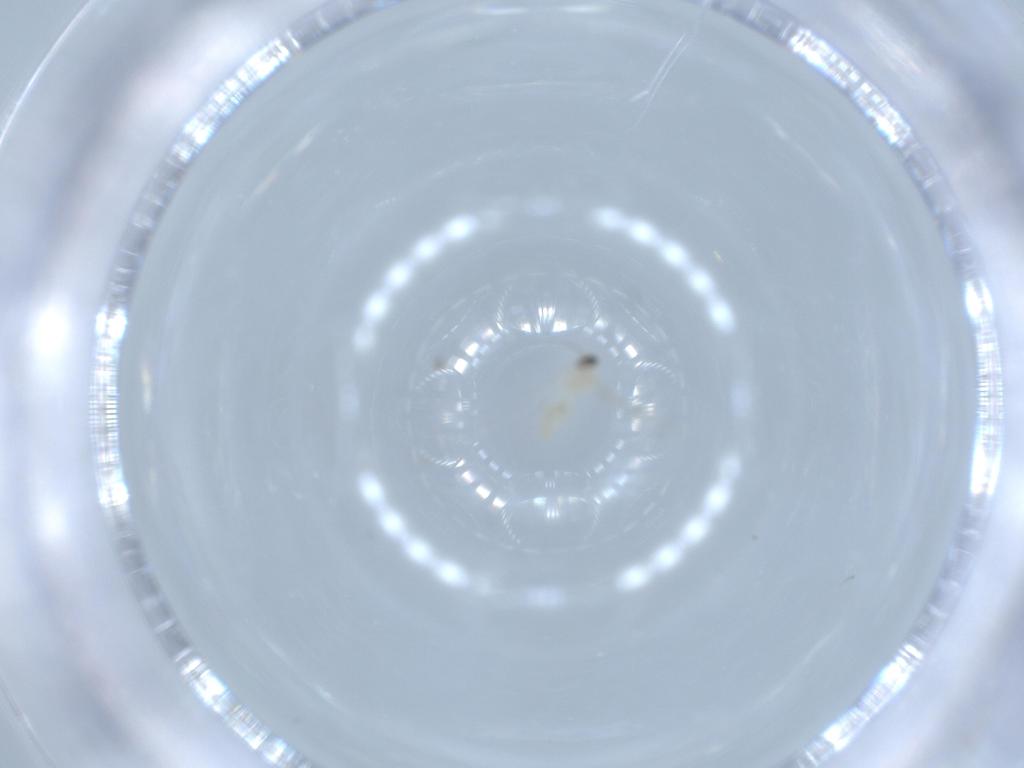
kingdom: Animalia
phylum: Arthropoda
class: Insecta
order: Diptera
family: Cecidomyiidae
